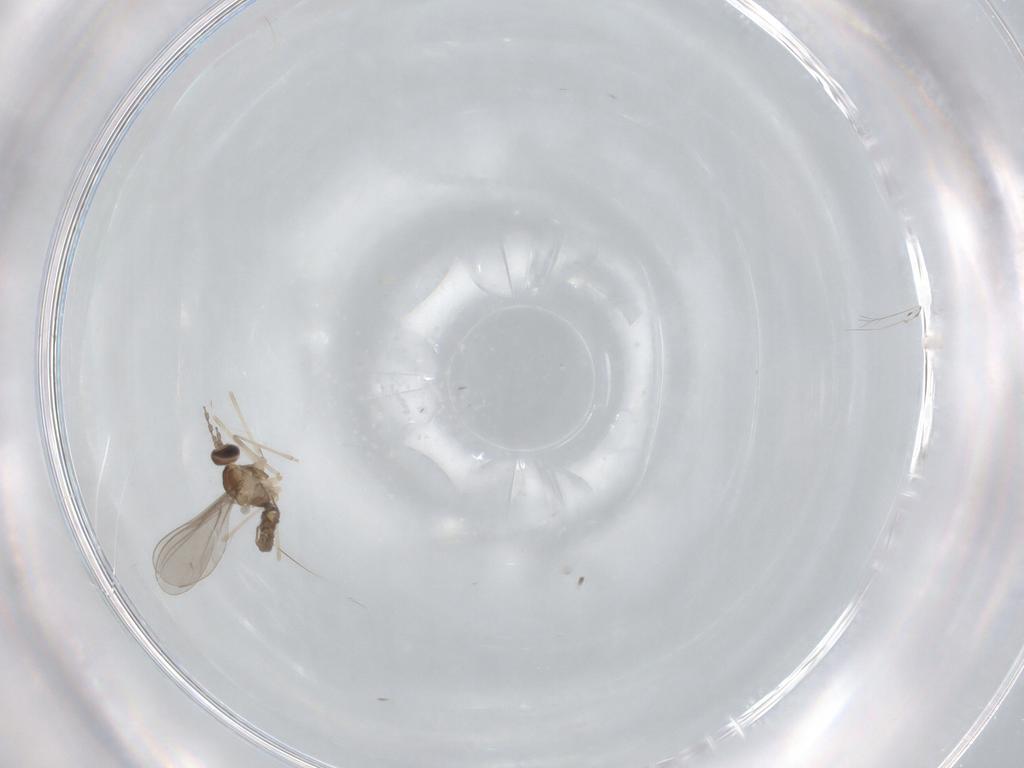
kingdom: Animalia
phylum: Arthropoda
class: Insecta
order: Diptera
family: Cecidomyiidae
